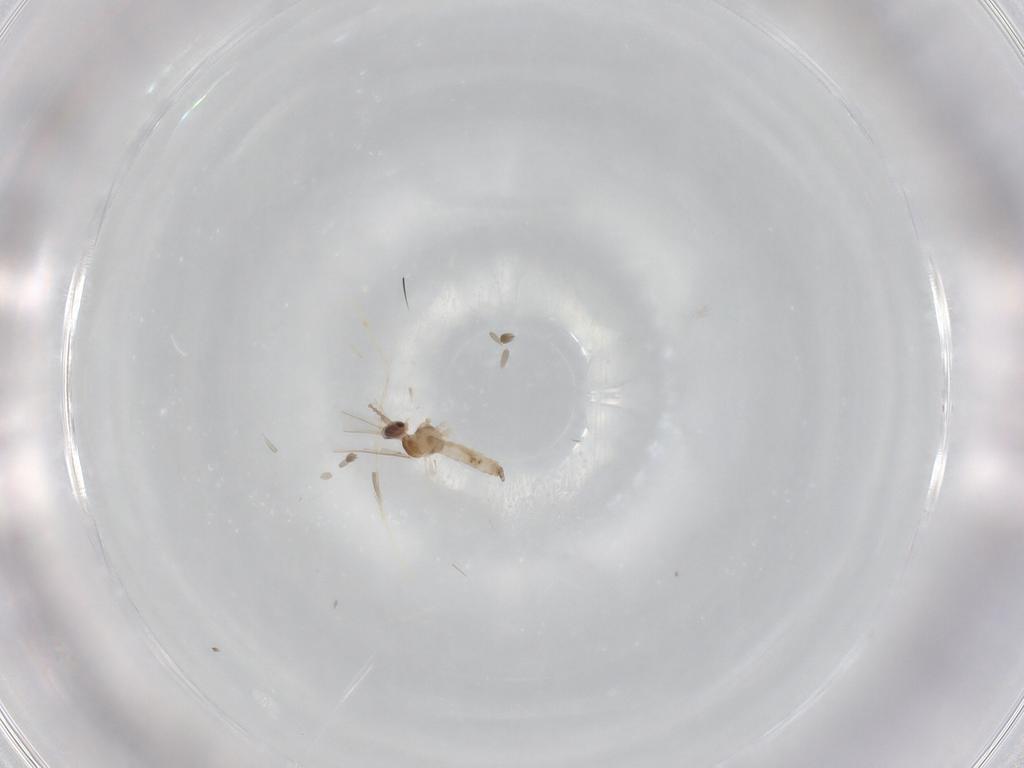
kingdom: Animalia
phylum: Arthropoda
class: Insecta
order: Diptera
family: Cecidomyiidae
